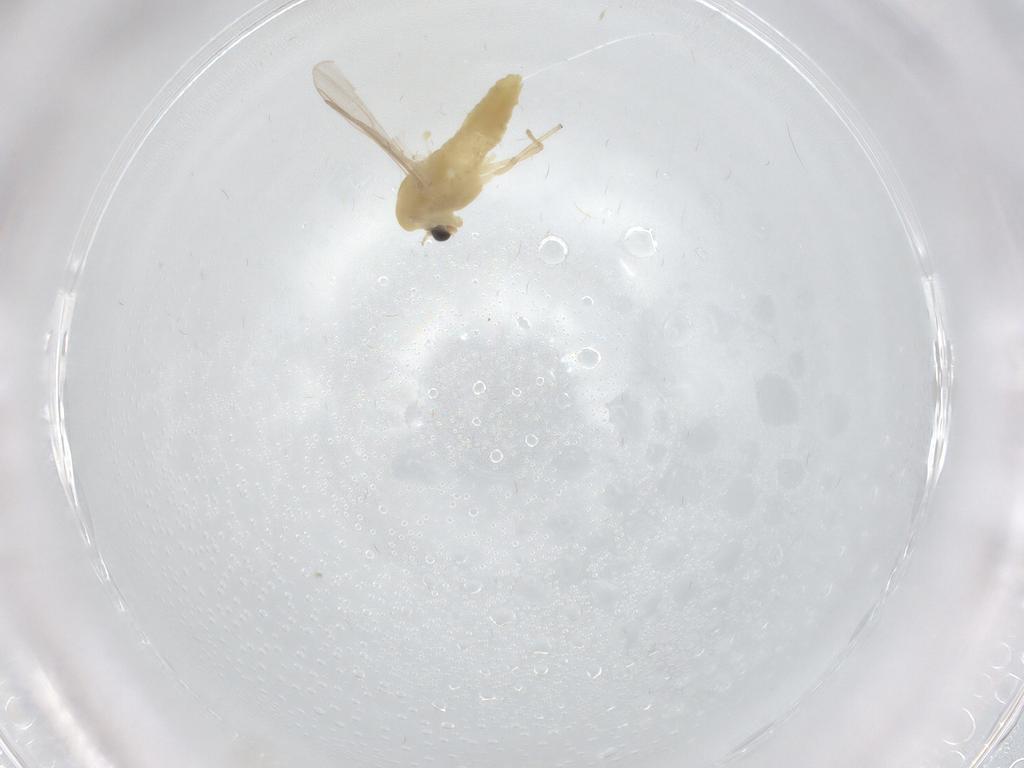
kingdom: Animalia
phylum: Arthropoda
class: Insecta
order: Diptera
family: Chironomidae
